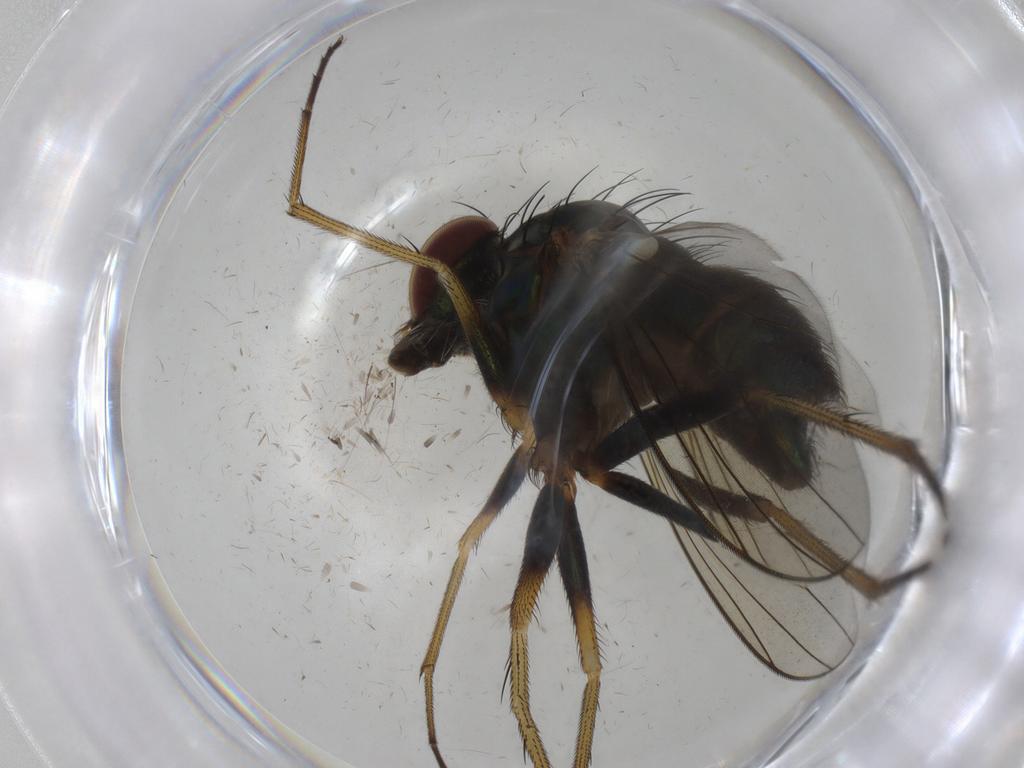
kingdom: Animalia
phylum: Arthropoda
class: Insecta
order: Diptera
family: Dolichopodidae
